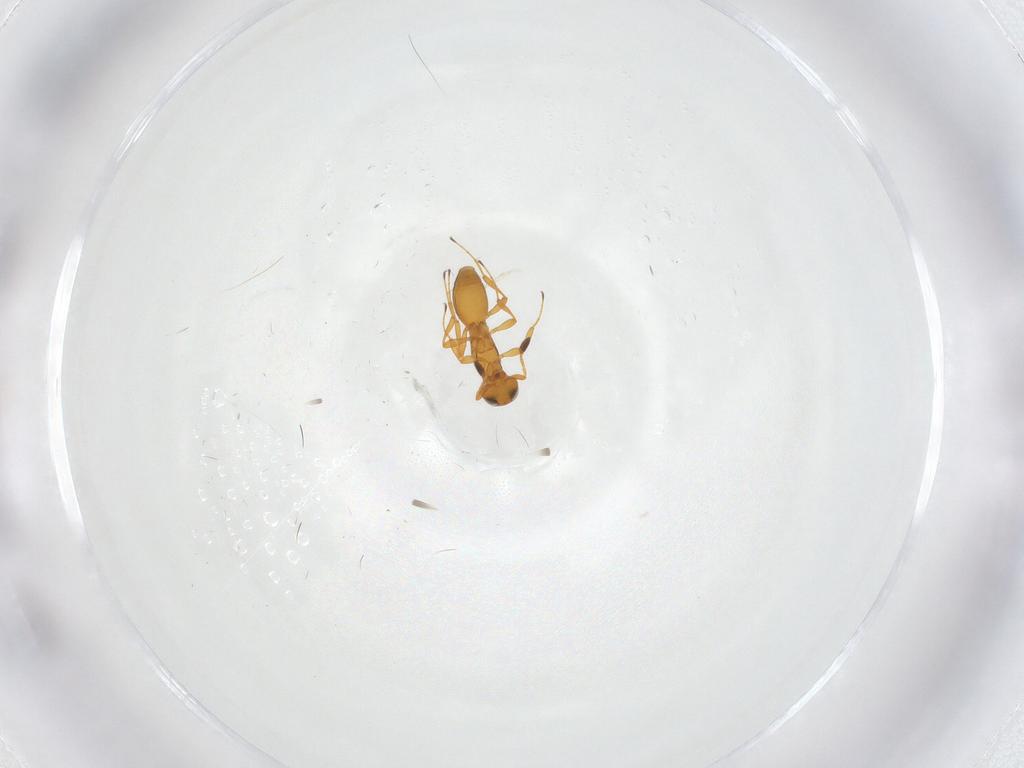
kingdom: Animalia
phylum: Arthropoda
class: Insecta
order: Hymenoptera
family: Platygastridae
